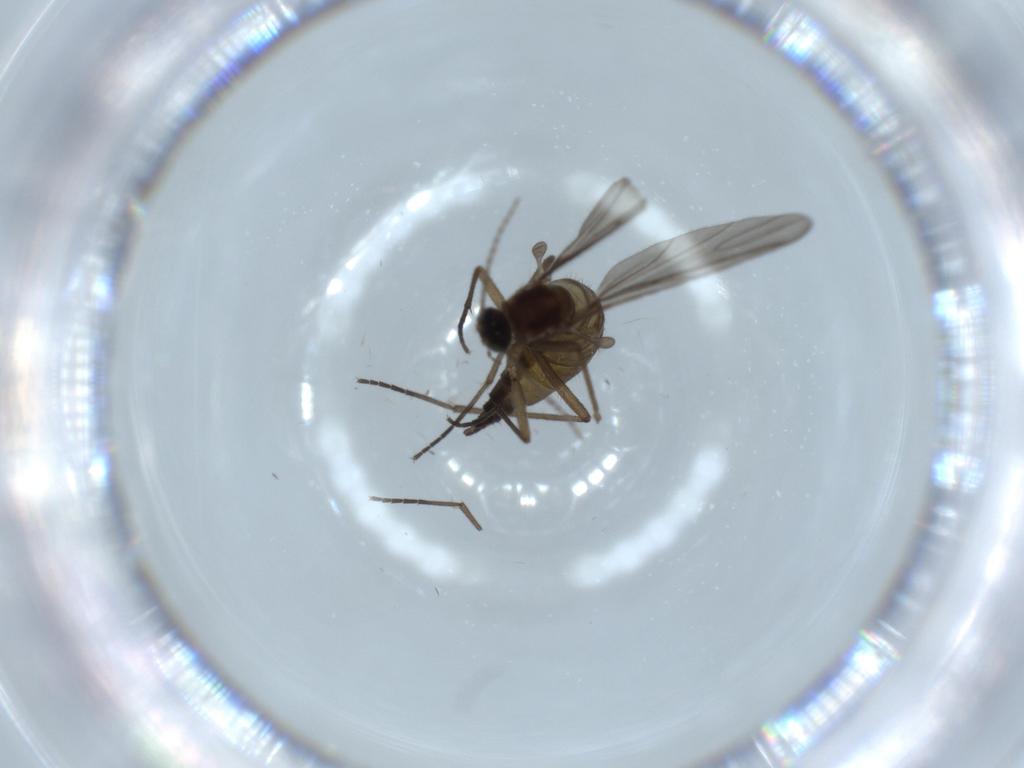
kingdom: Animalia
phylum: Arthropoda
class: Insecta
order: Diptera
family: Sciaridae
